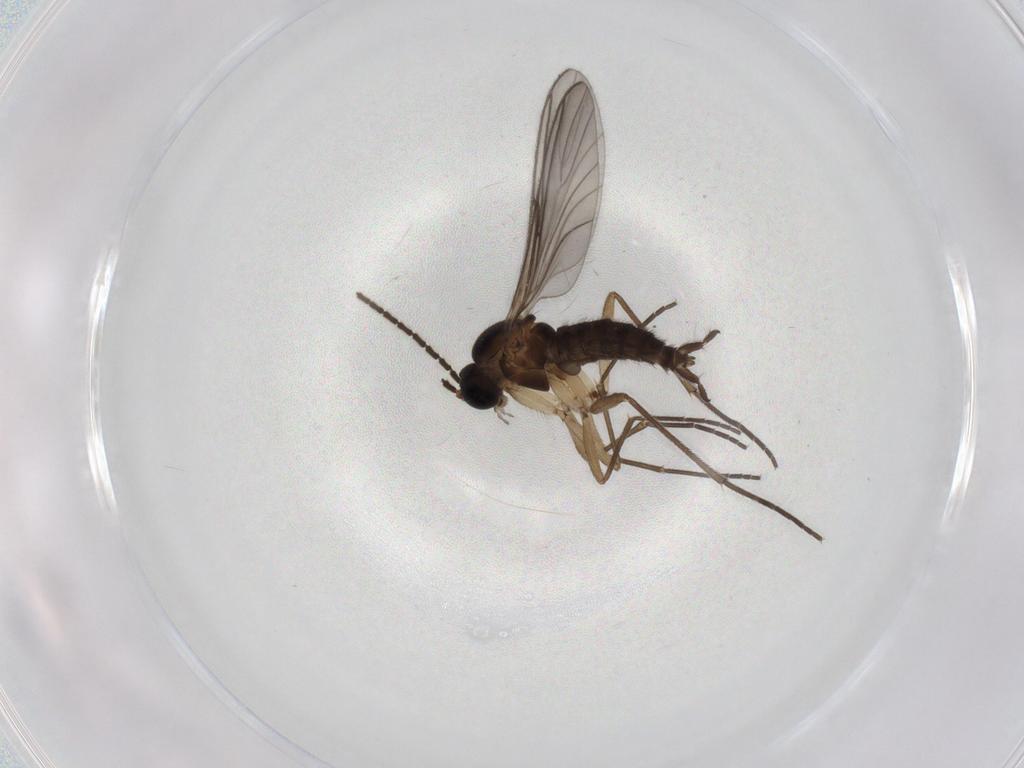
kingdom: Animalia
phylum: Arthropoda
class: Insecta
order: Diptera
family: Sciaridae
